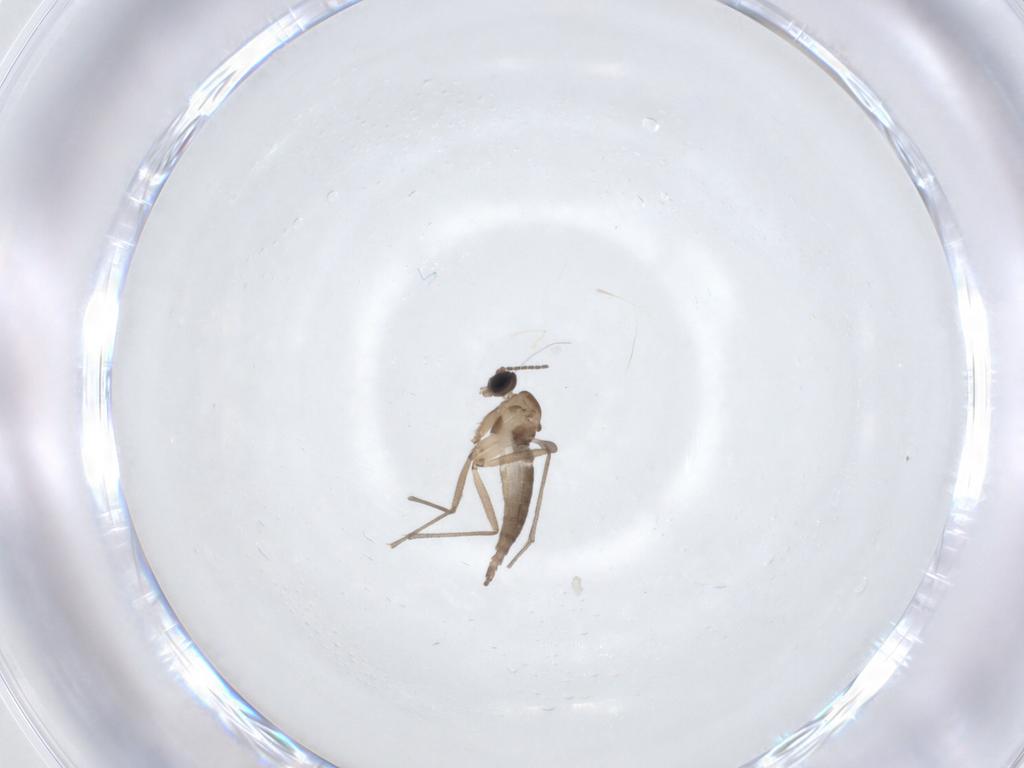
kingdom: Animalia
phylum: Arthropoda
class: Insecta
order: Diptera
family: Sciaridae
